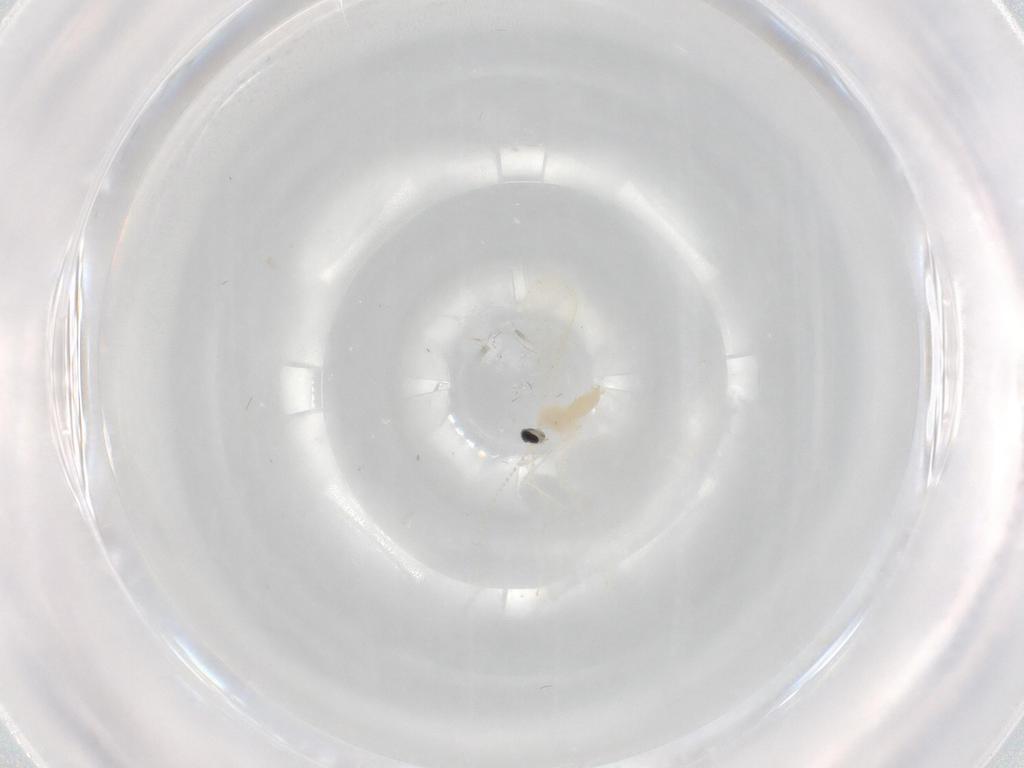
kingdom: Animalia
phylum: Arthropoda
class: Insecta
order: Diptera
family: Cecidomyiidae
